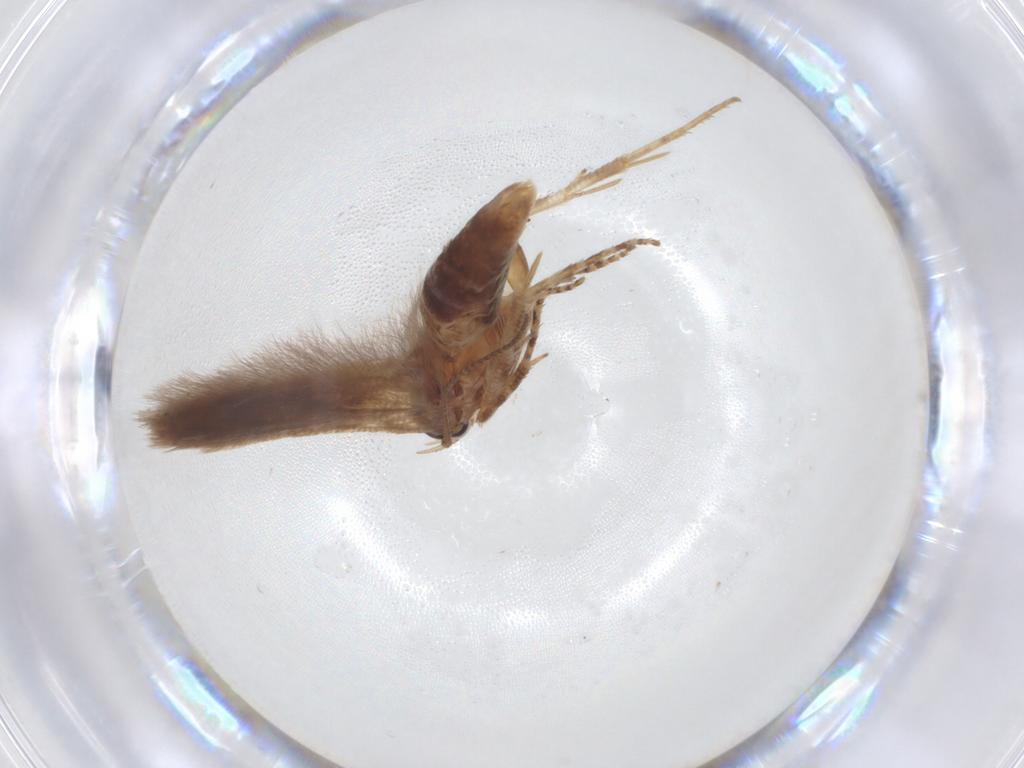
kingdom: Animalia
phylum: Arthropoda
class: Insecta
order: Lepidoptera
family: Gelechiidae
